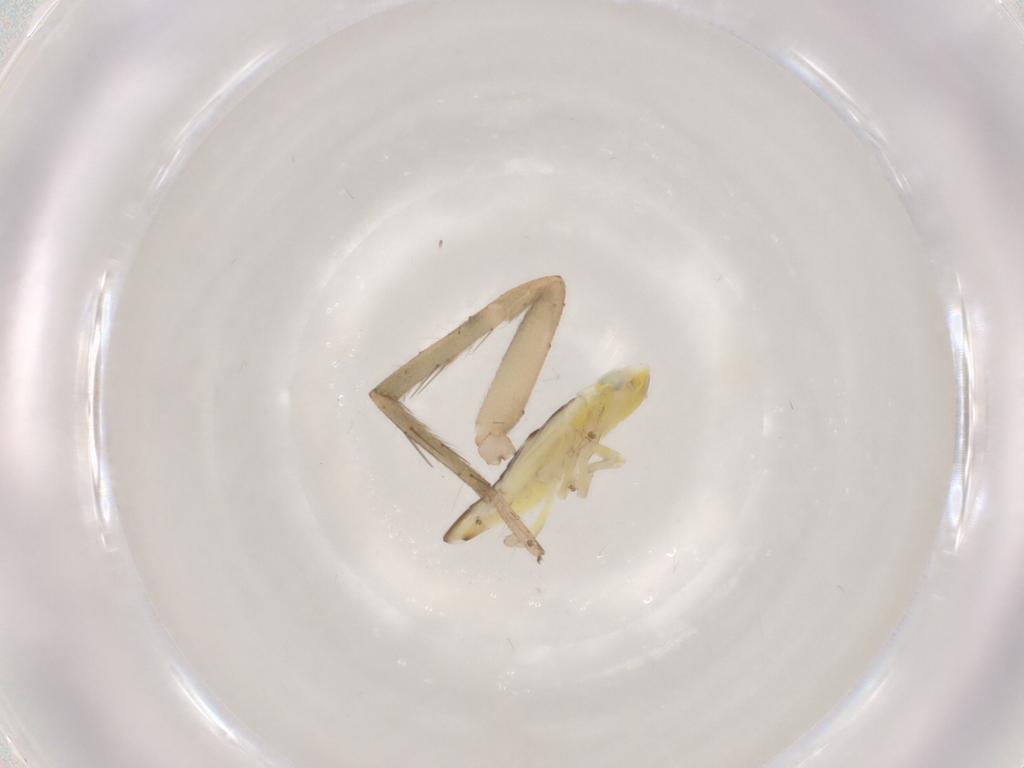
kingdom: Animalia
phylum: Arthropoda
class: Insecta
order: Hemiptera
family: Cicadellidae
